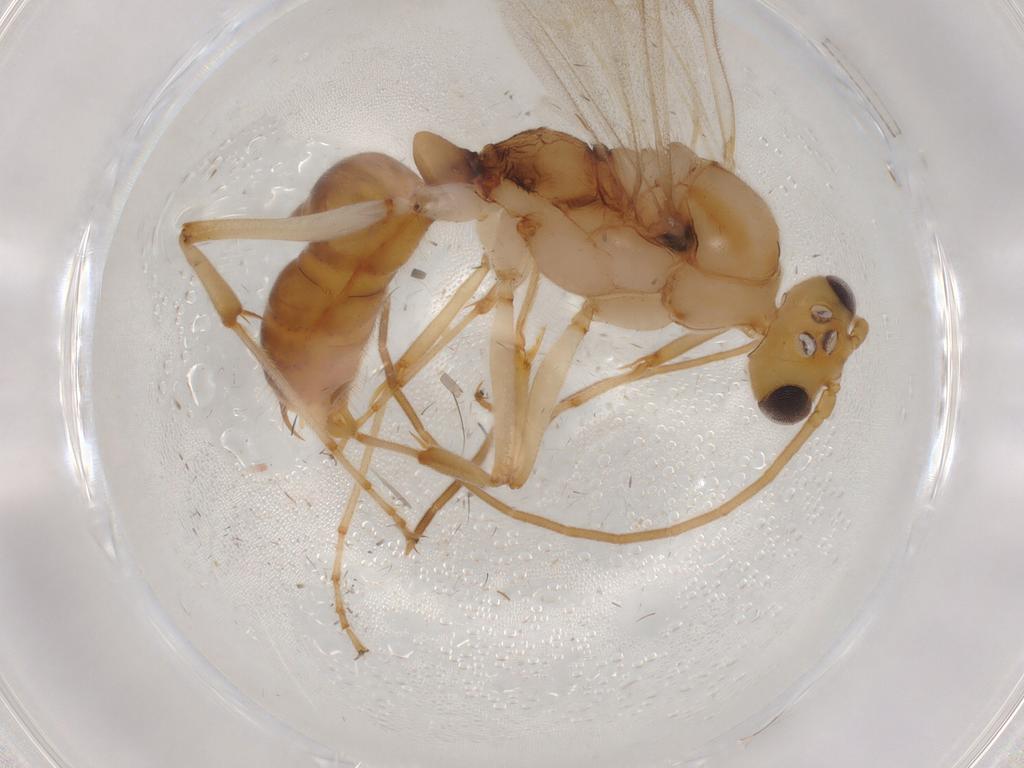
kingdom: Animalia
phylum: Arthropoda
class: Insecta
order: Hymenoptera
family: Formicidae
